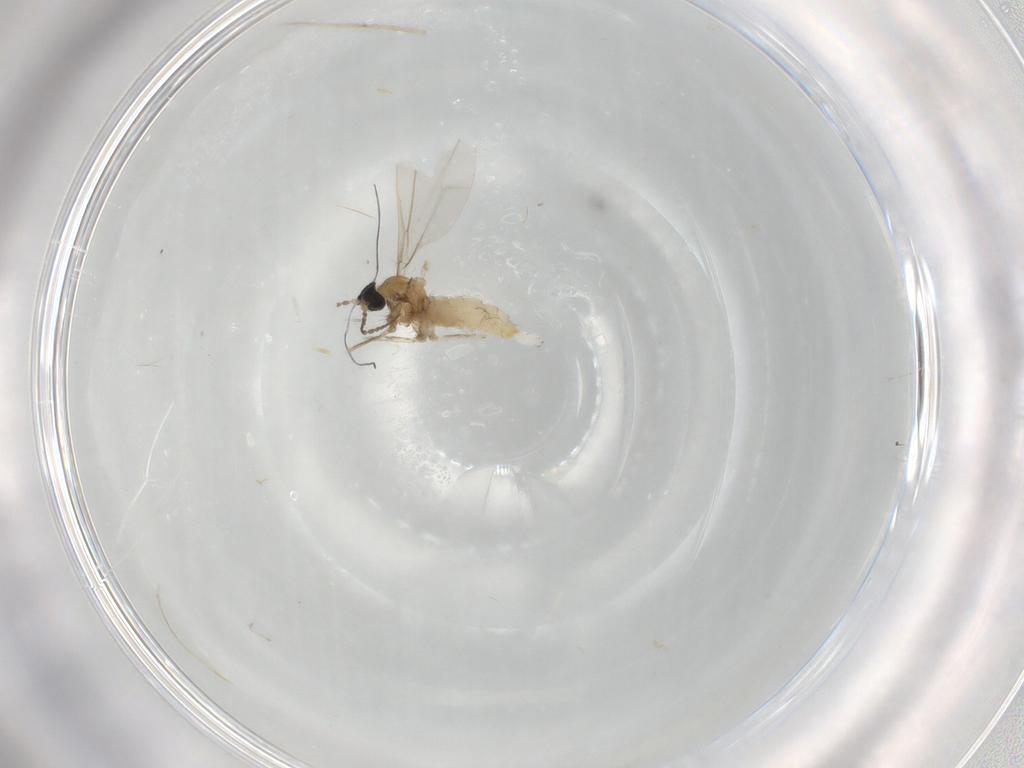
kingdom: Animalia
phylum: Arthropoda
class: Insecta
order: Diptera
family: Cecidomyiidae
